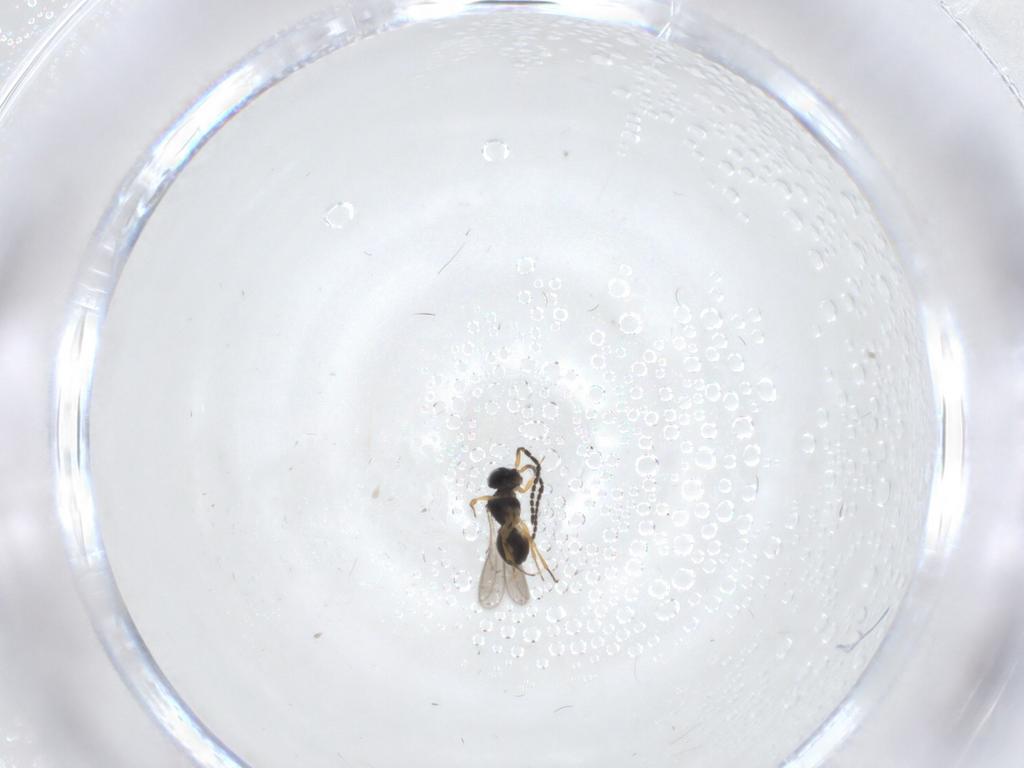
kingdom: Animalia
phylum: Arthropoda
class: Insecta
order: Hymenoptera
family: Scelionidae
